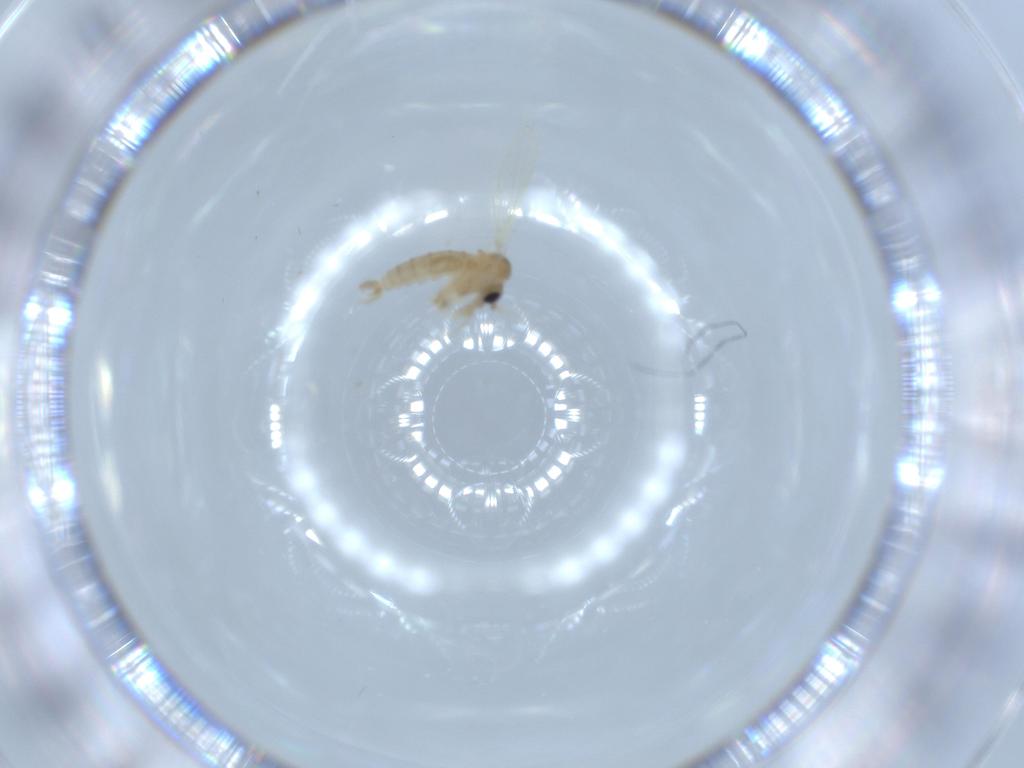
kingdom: Animalia
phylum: Arthropoda
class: Insecta
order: Diptera
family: Psychodidae
